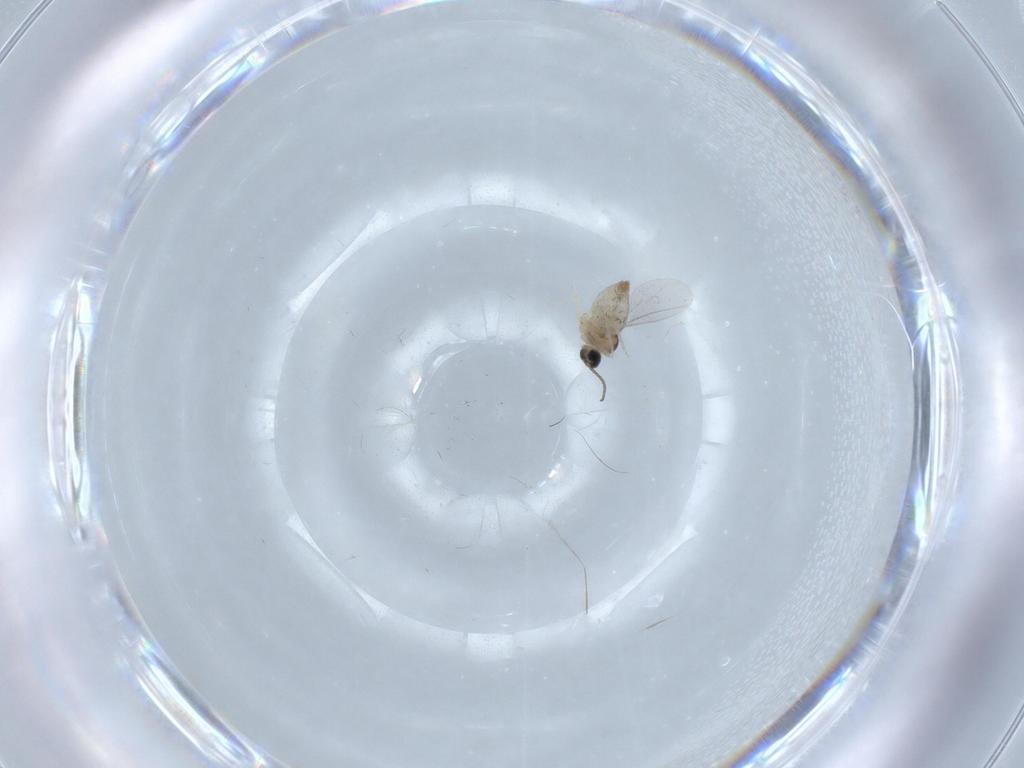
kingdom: Animalia
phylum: Arthropoda
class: Insecta
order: Diptera
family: Cecidomyiidae
